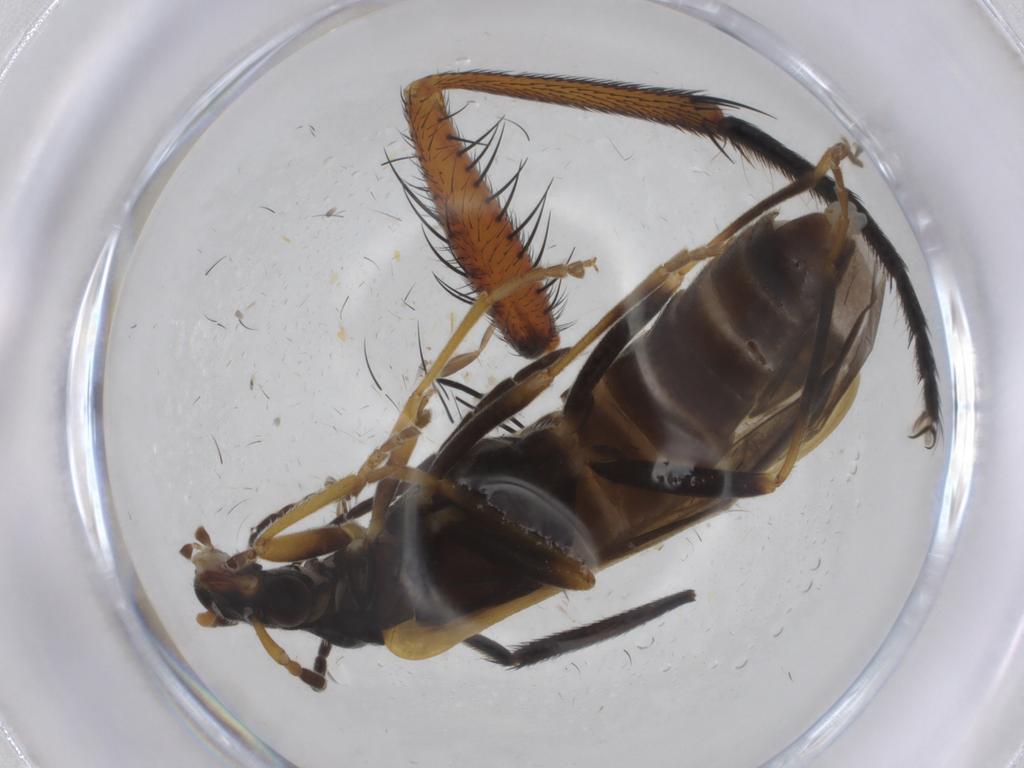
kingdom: Animalia
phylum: Arthropoda
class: Insecta
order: Coleoptera
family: Cantharidae
